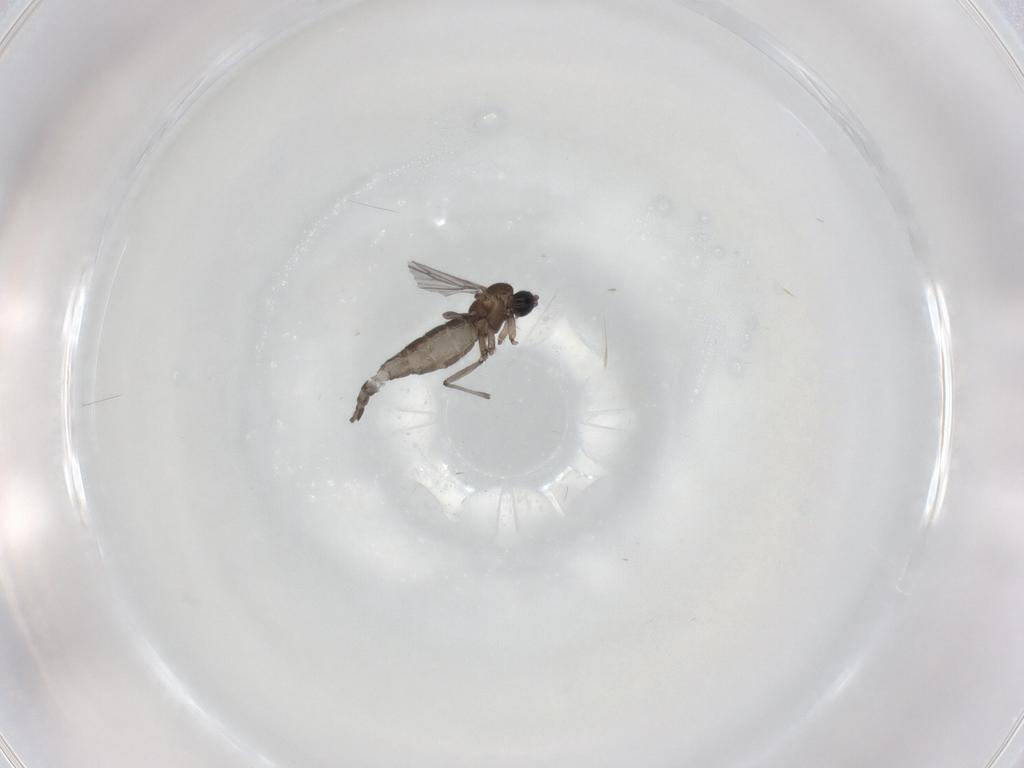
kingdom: Animalia
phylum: Arthropoda
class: Insecta
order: Diptera
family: Sciaridae
